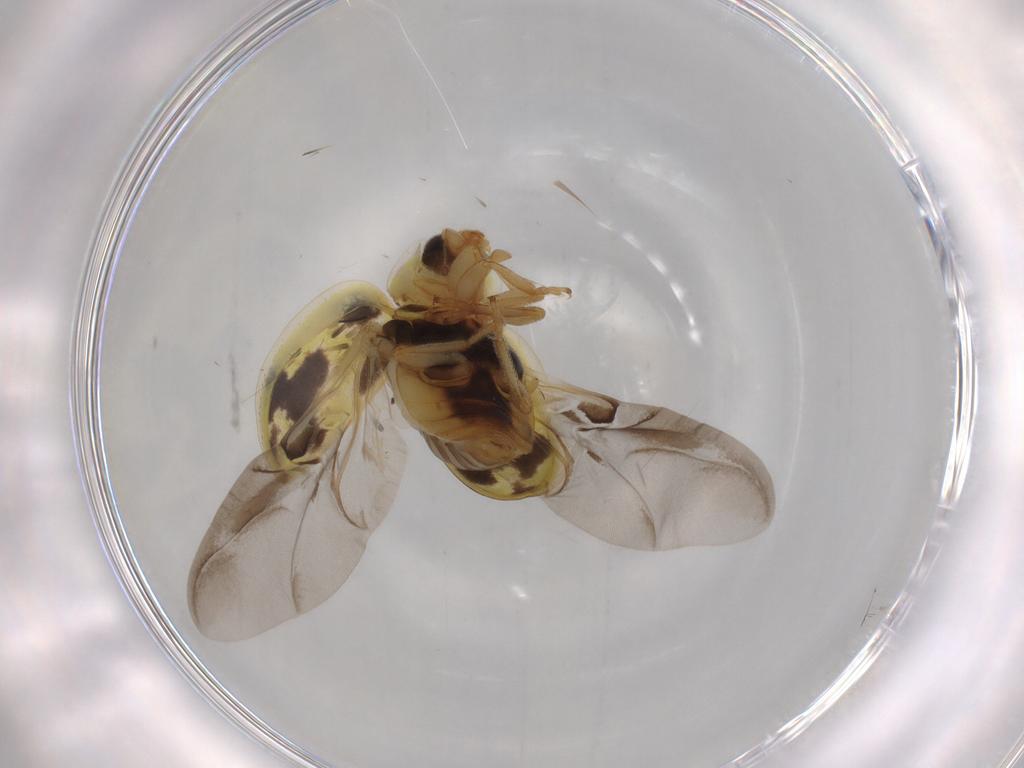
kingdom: Animalia
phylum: Arthropoda
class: Insecta
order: Coleoptera
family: Coccinellidae
